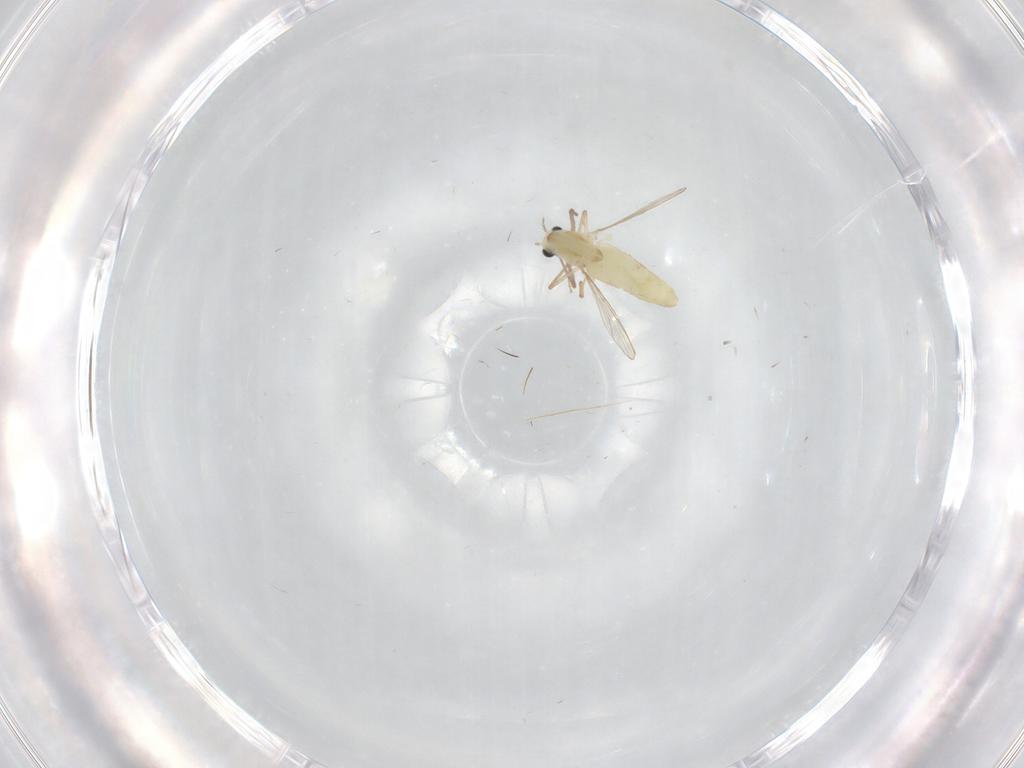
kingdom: Animalia
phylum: Arthropoda
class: Insecta
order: Diptera
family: Chironomidae
